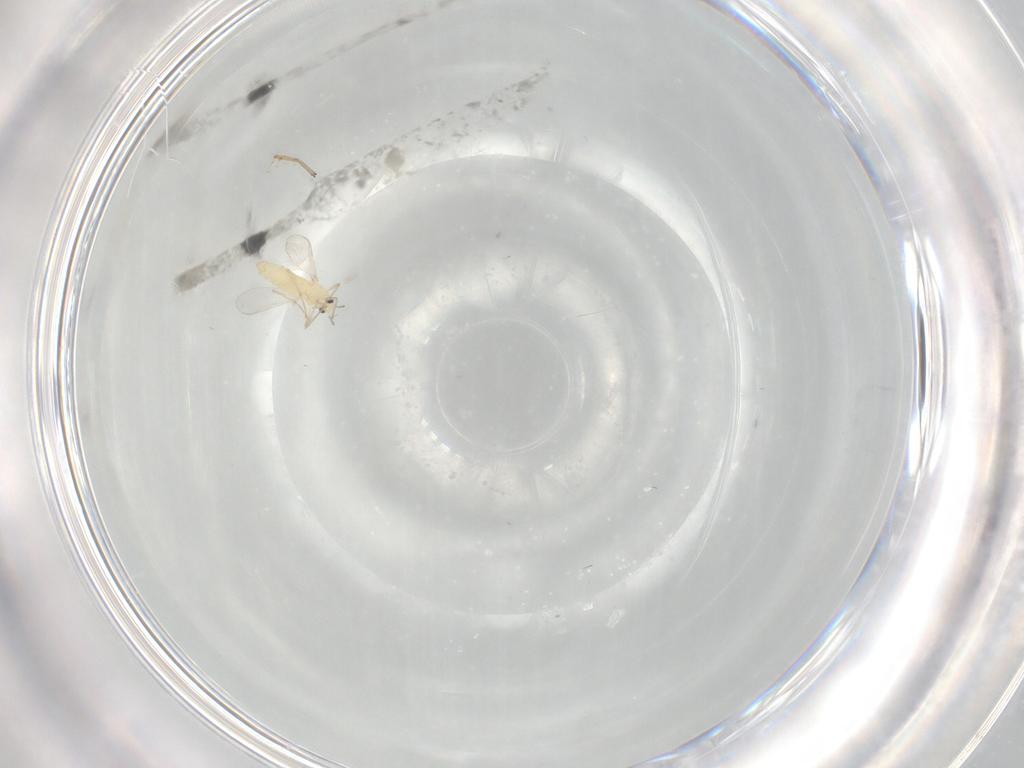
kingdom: Animalia
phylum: Arthropoda
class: Insecta
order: Diptera
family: Chironomidae
